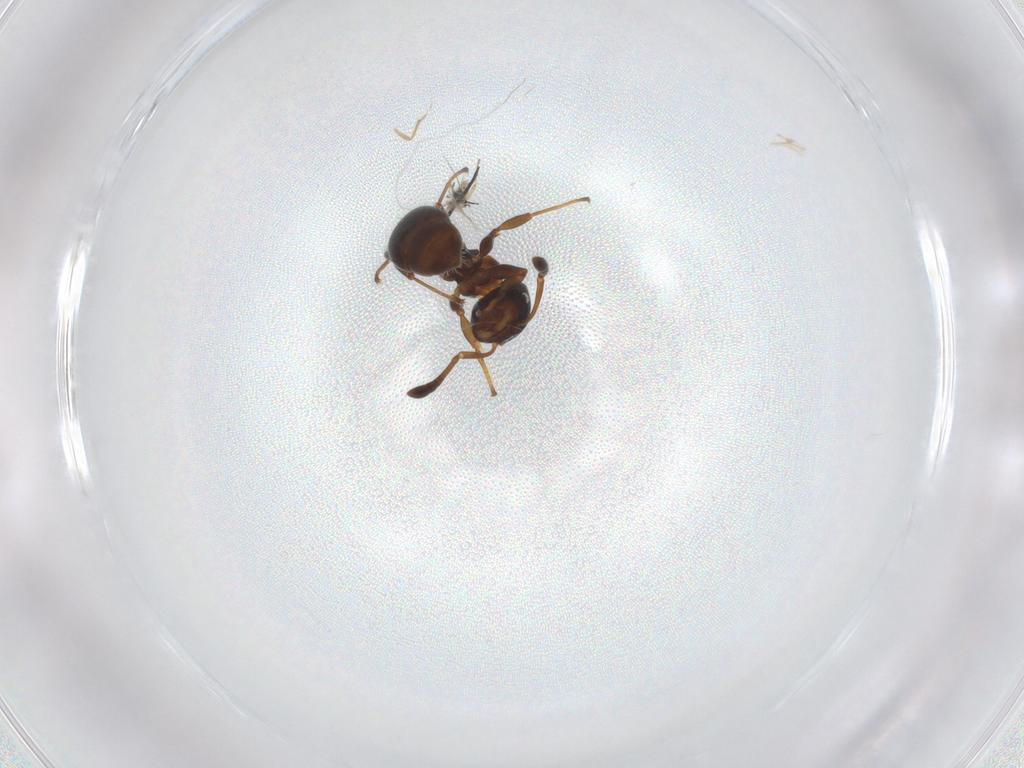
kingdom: Animalia
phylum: Arthropoda
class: Insecta
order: Hymenoptera
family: Formicidae
